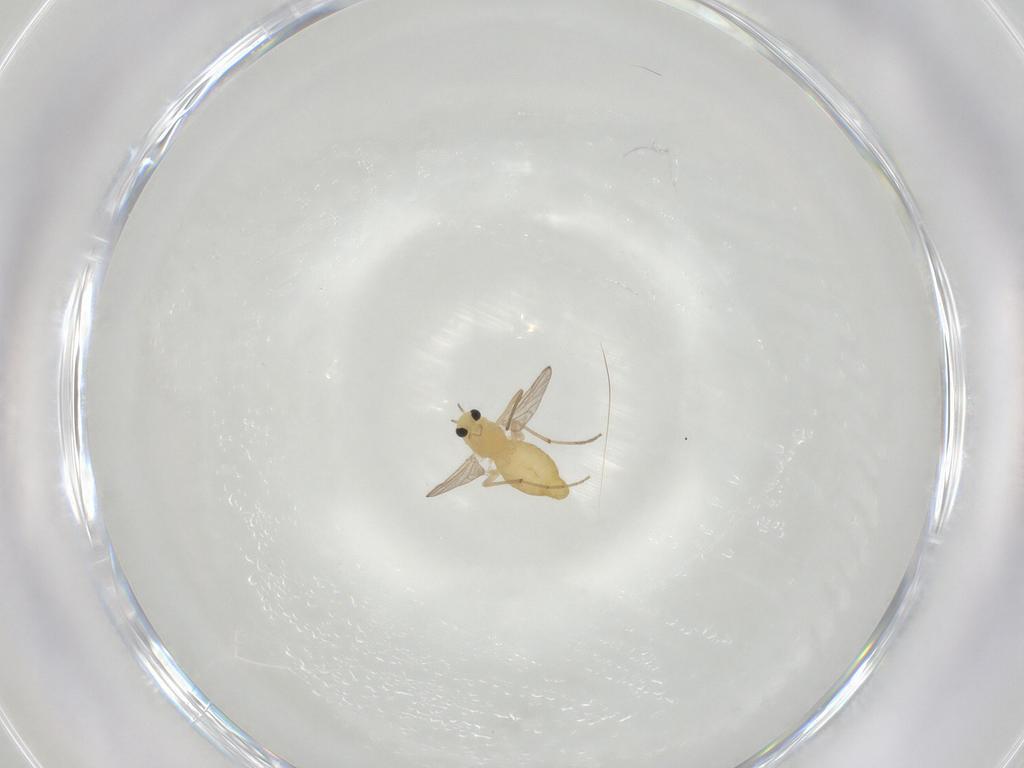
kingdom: Animalia
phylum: Arthropoda
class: Insecta
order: Diptera
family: Chironomidae
